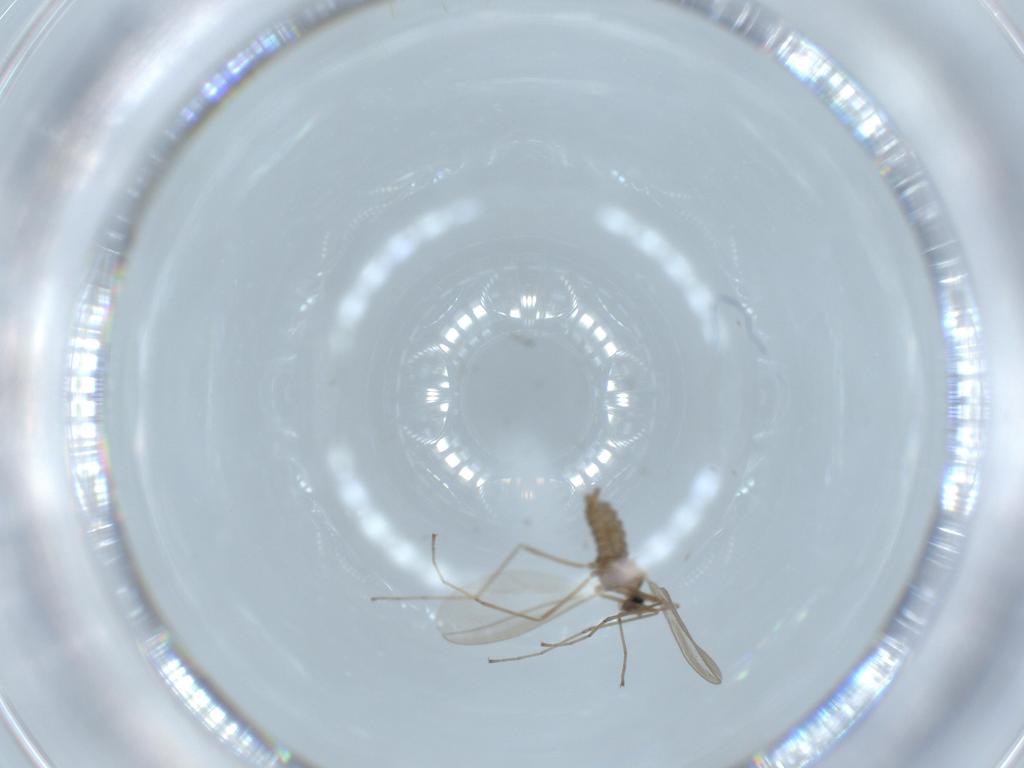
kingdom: Animalia
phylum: Arthropoda
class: Insecta
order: Diptera
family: Cecidomyiidae
